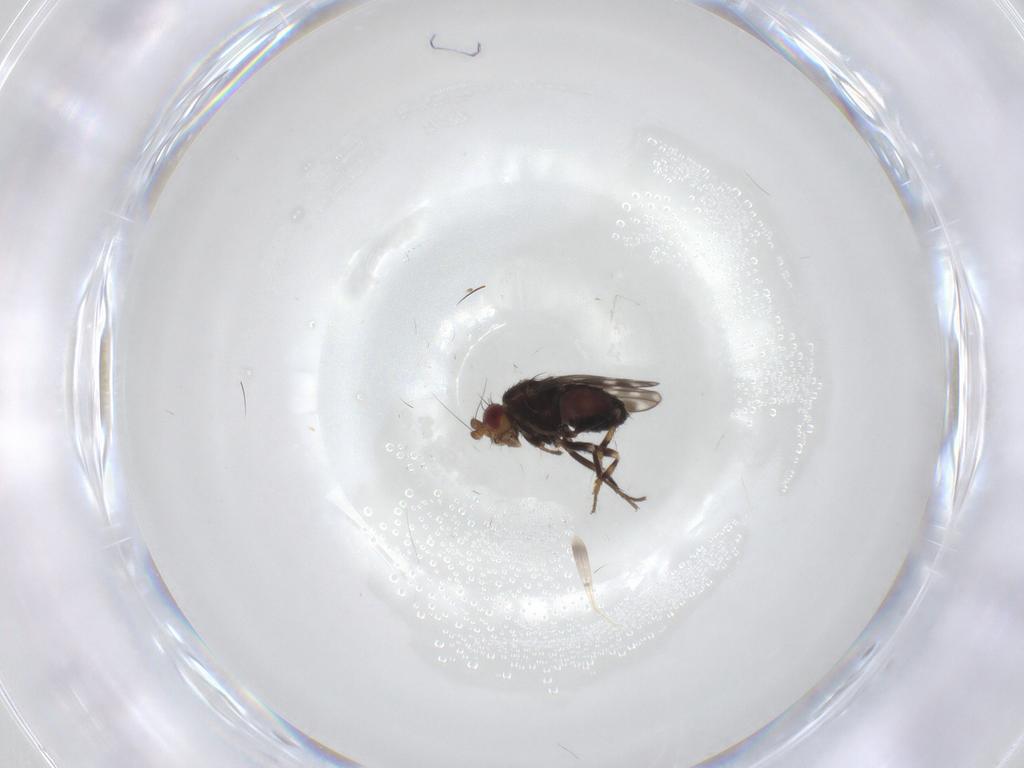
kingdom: Animalia
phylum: Arthropoda
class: Insecta
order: Diptera
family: Sphaeroceridae
